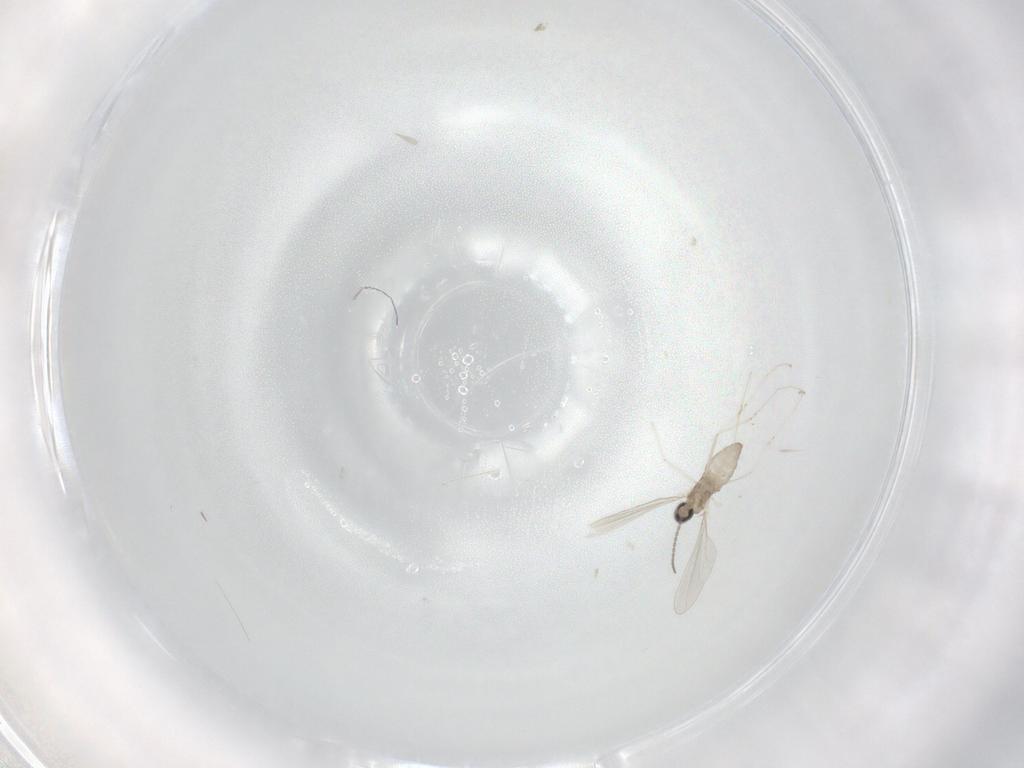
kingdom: Animalia
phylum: Arthropoda
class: Insecta
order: Diptera
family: Cecidomyiidae
